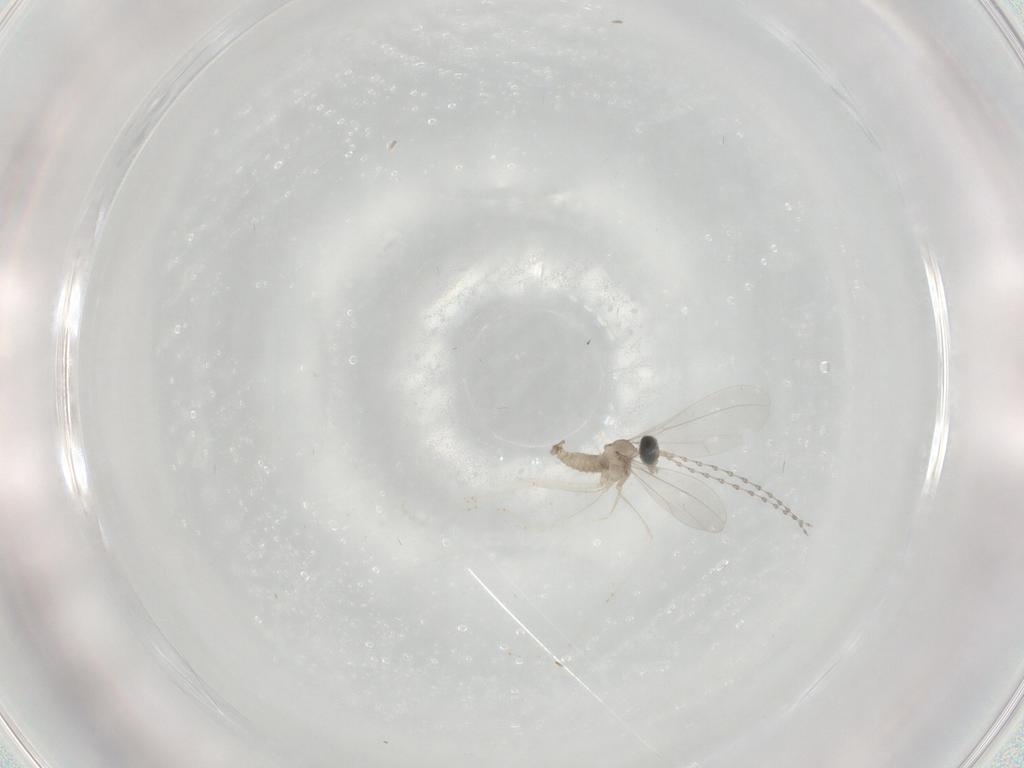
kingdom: Animalia
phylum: Arthropoda
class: Insecta
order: Diptera
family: Cecidomyiidae
